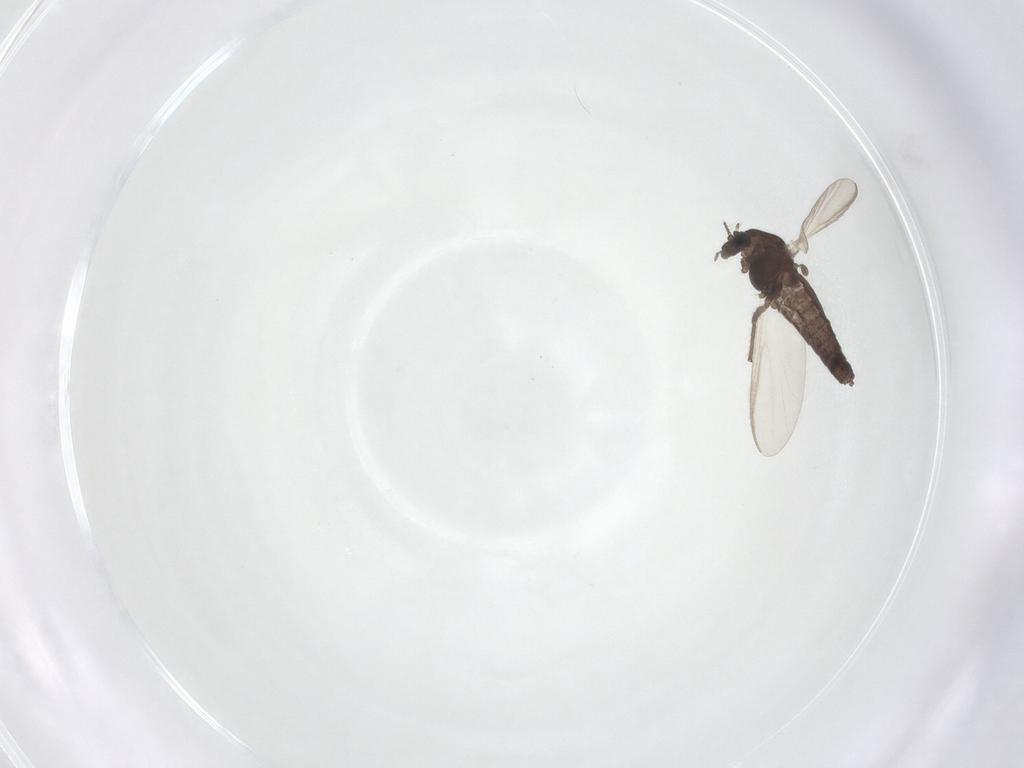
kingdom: Animalia
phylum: Arthropoda
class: Insecta
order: Diptera
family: Chironomidae
